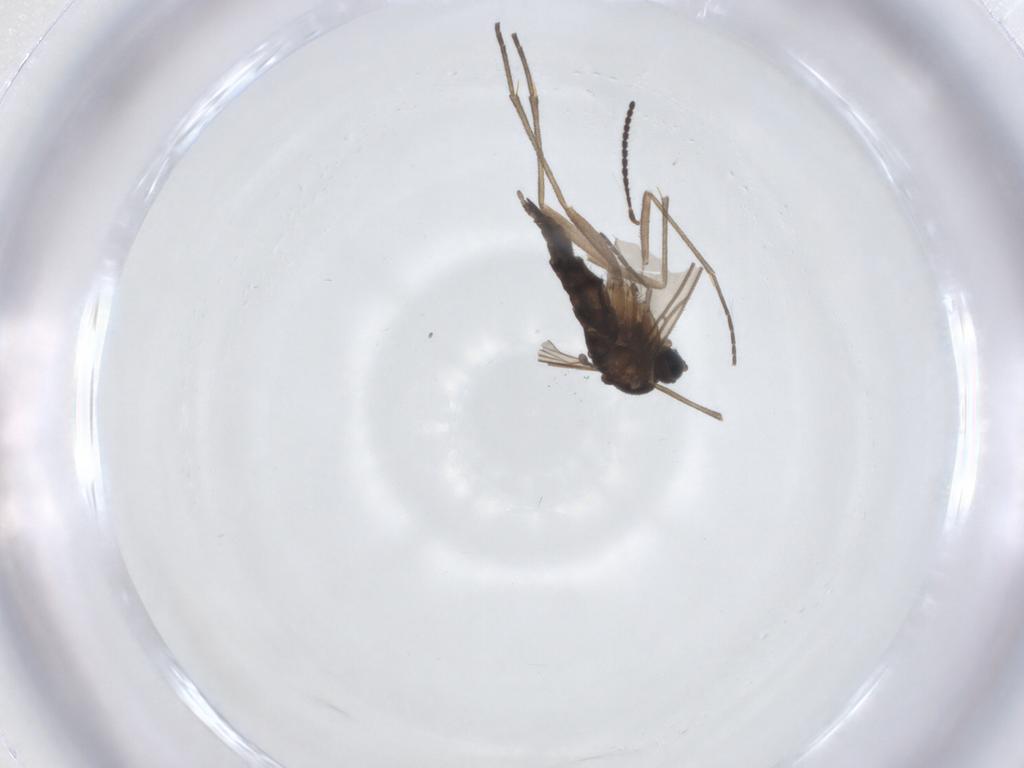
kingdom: Animalia
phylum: Arthropoda
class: Insecta
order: Diptera
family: Sciaridae
